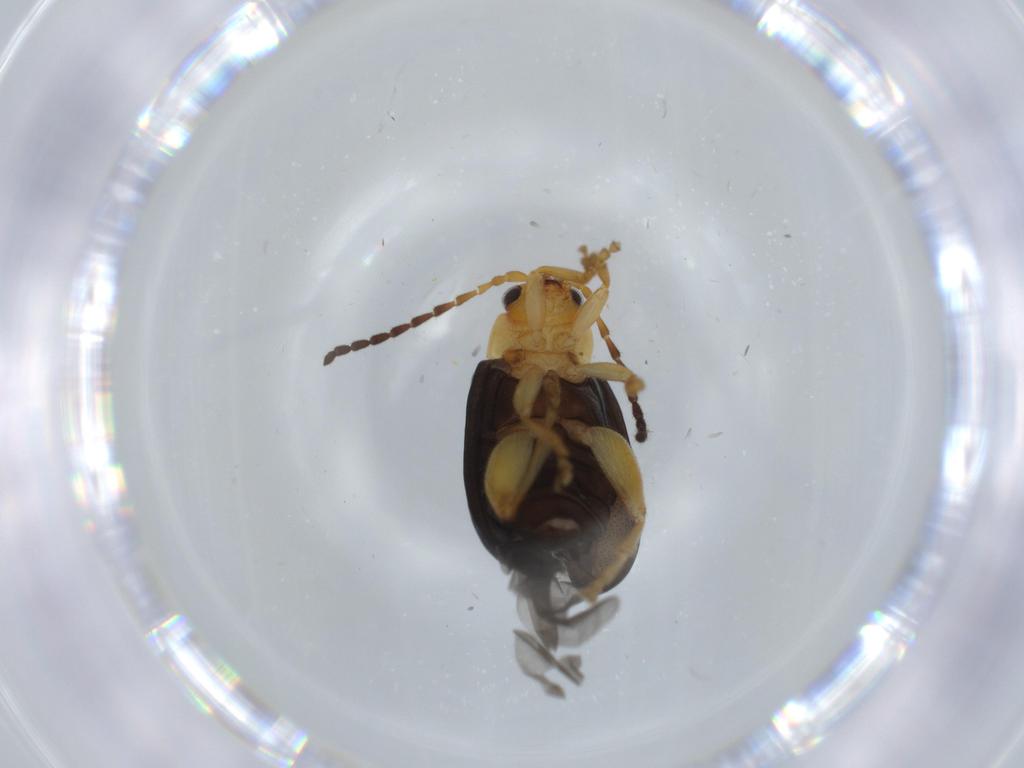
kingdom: Animalia
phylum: Arthropoda
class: Insecta
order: Coleoptera
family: Chrysomelidae
